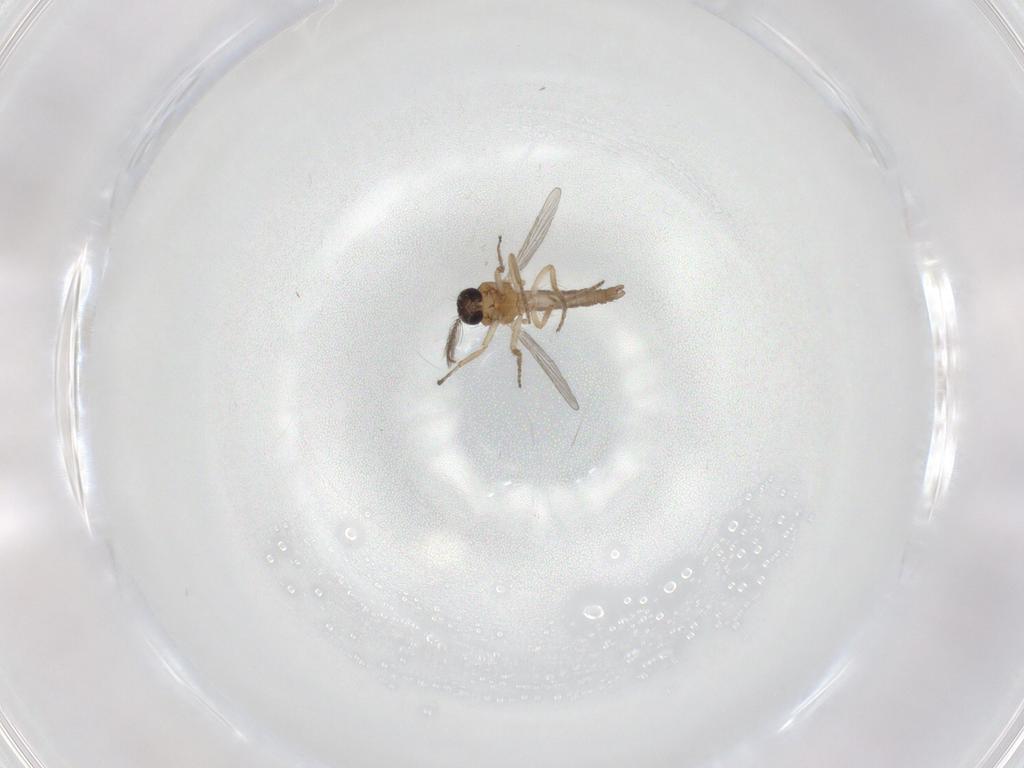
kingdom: Animalia
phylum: Arthropoda
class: Insecta
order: Diptera
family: Ceratopogonidae
